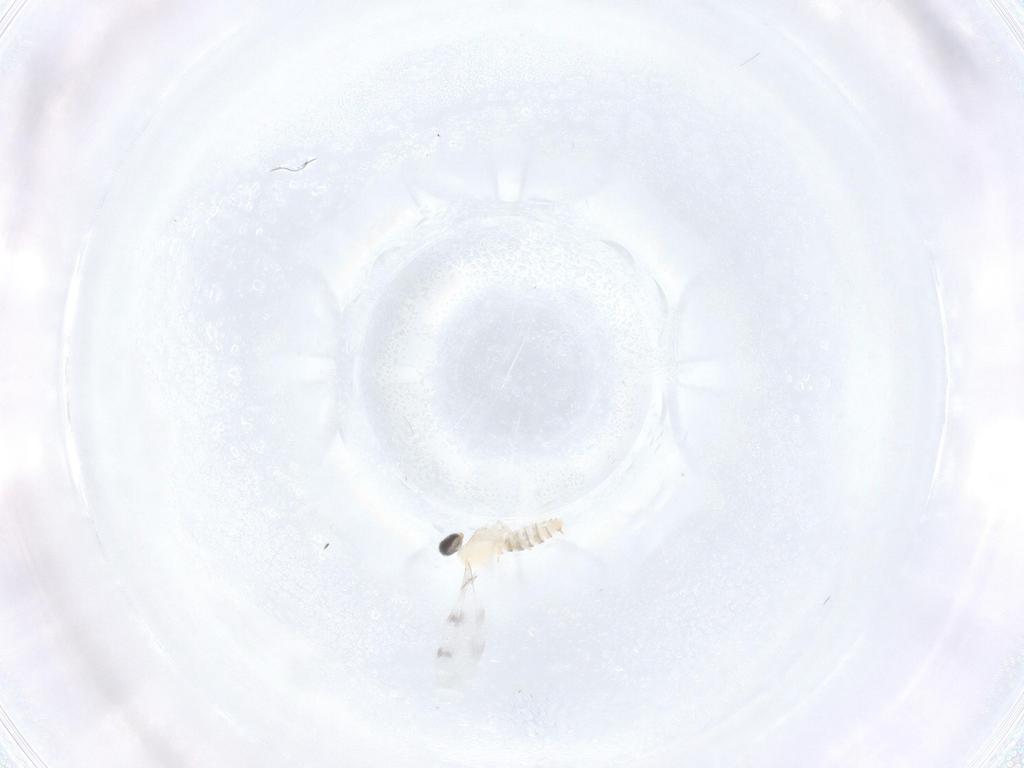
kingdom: Animalia
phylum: Arthropoda
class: Insecta
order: Diptera
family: Cecidomyiidae
